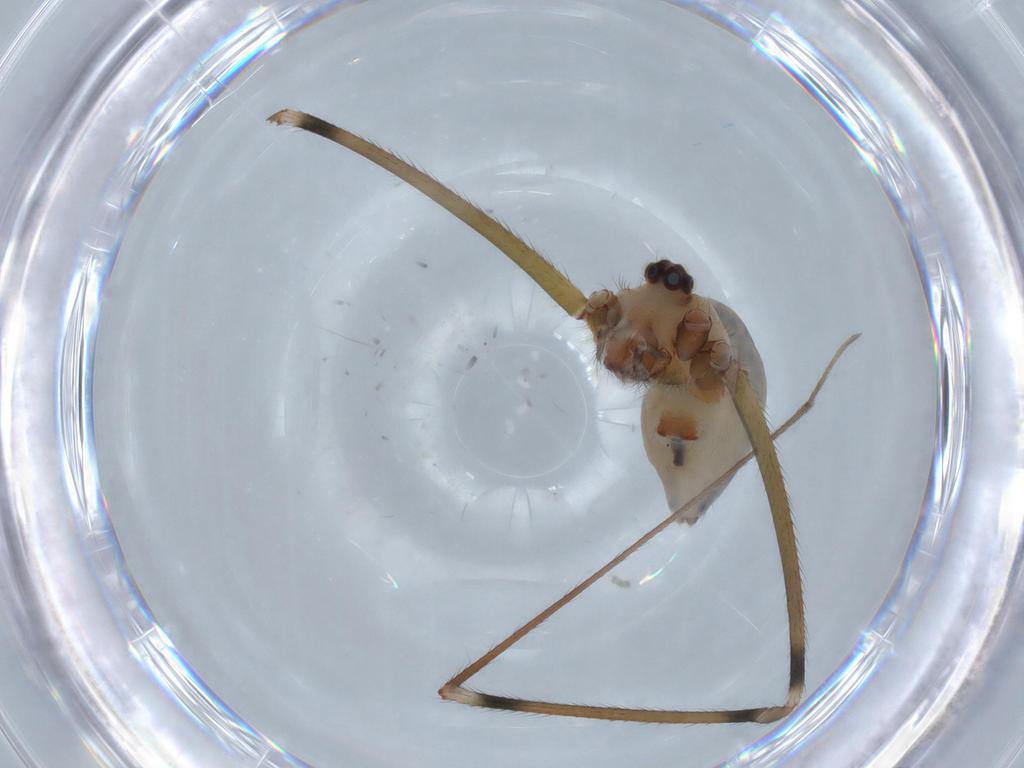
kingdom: Animalia
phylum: Arthropoda
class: Arachnida
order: Araneae
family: Pholcidae
